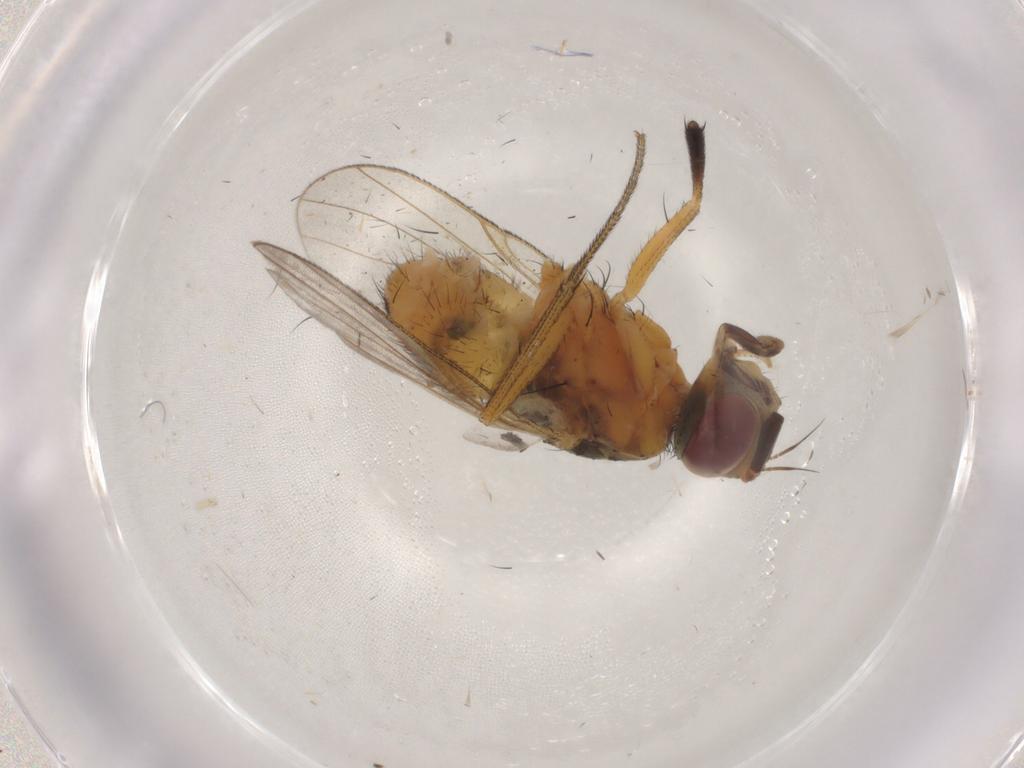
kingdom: Animalia
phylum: Arthropoda
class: Insecta
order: Diptera
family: Muscidae
